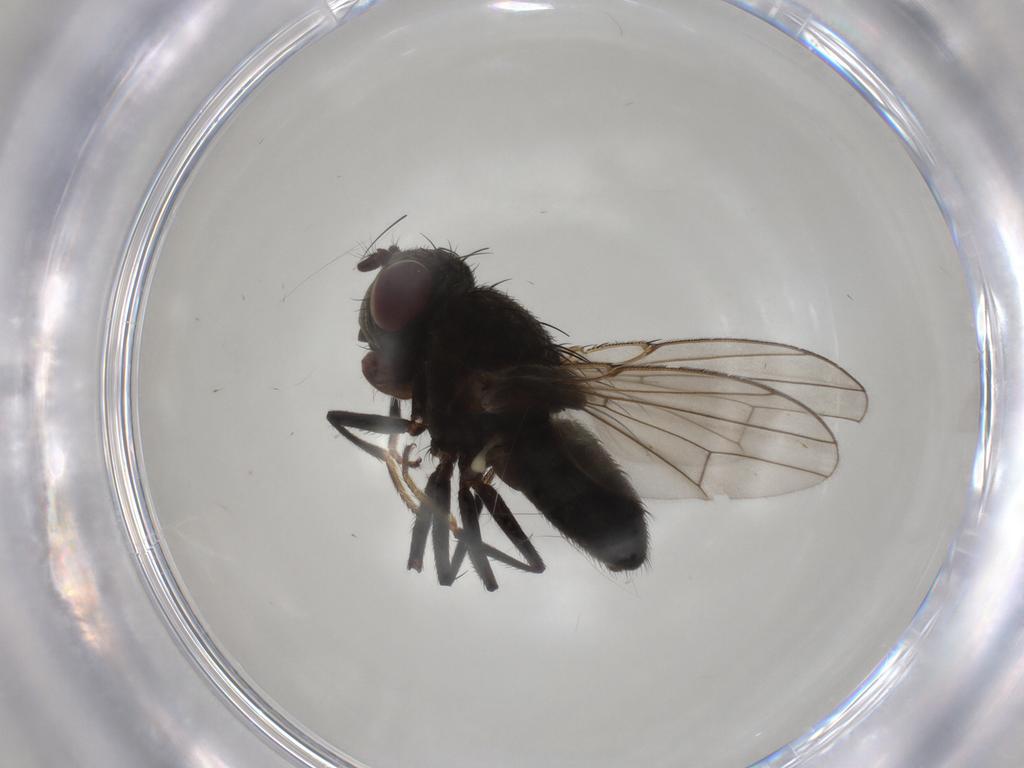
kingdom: Animalia
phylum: Arthropoda
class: Insecta
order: Diptera
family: Ephydridae
